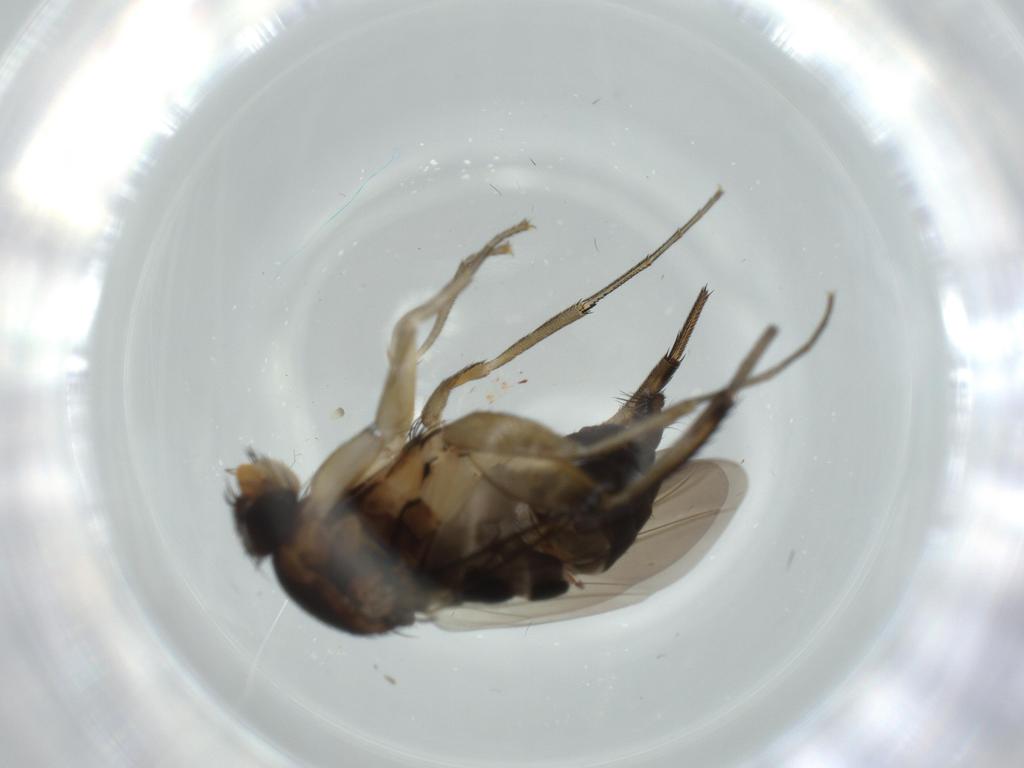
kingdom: Animalia
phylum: Arthropoda
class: Insecta
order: Diptera
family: Phoridae
